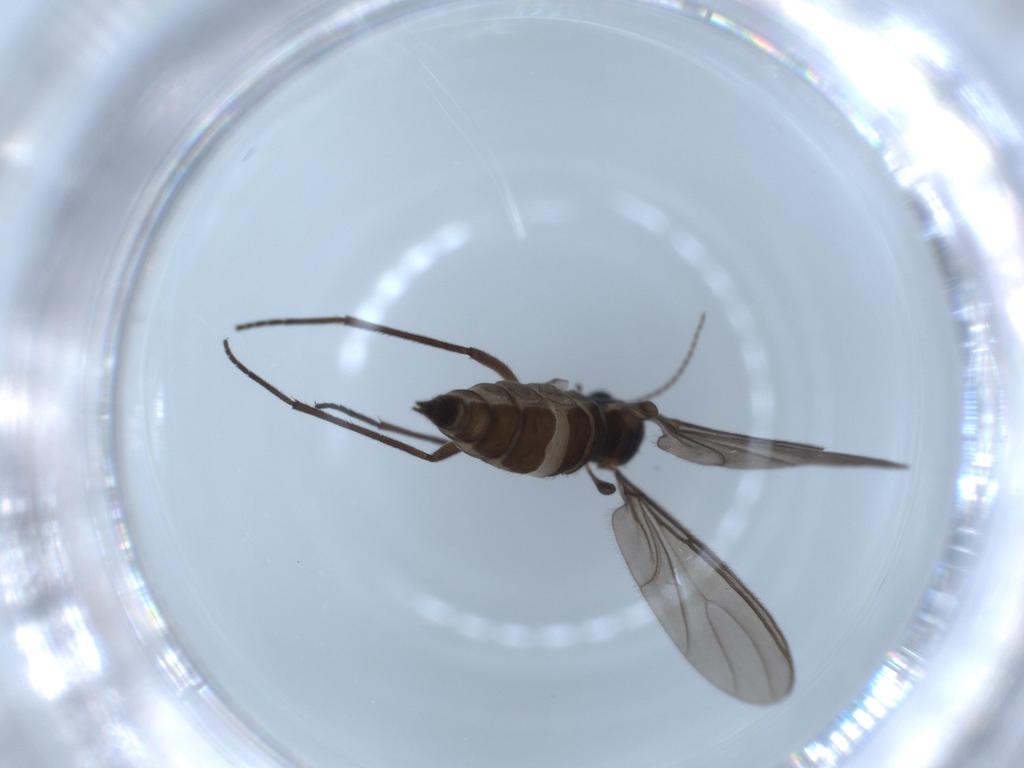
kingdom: Animalia
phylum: Arthropoda
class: Insecta
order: Diptera
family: Sciaridae
